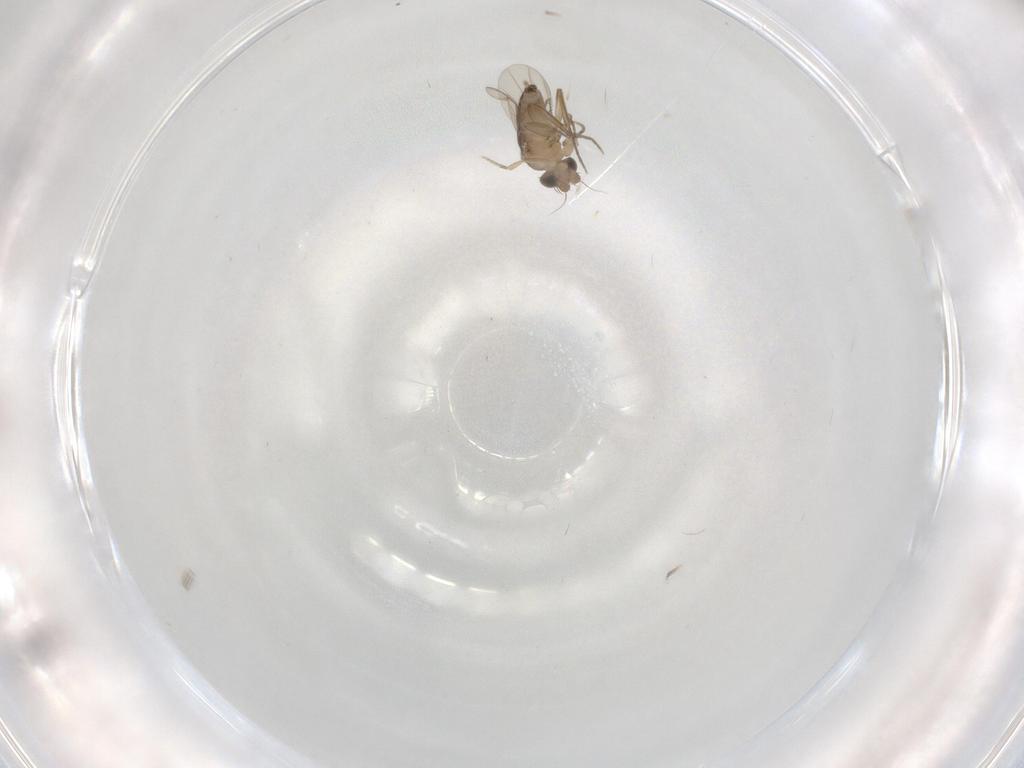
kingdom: Animalia
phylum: Arthropoda
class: Insecta
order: Diptera
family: Phoridae
